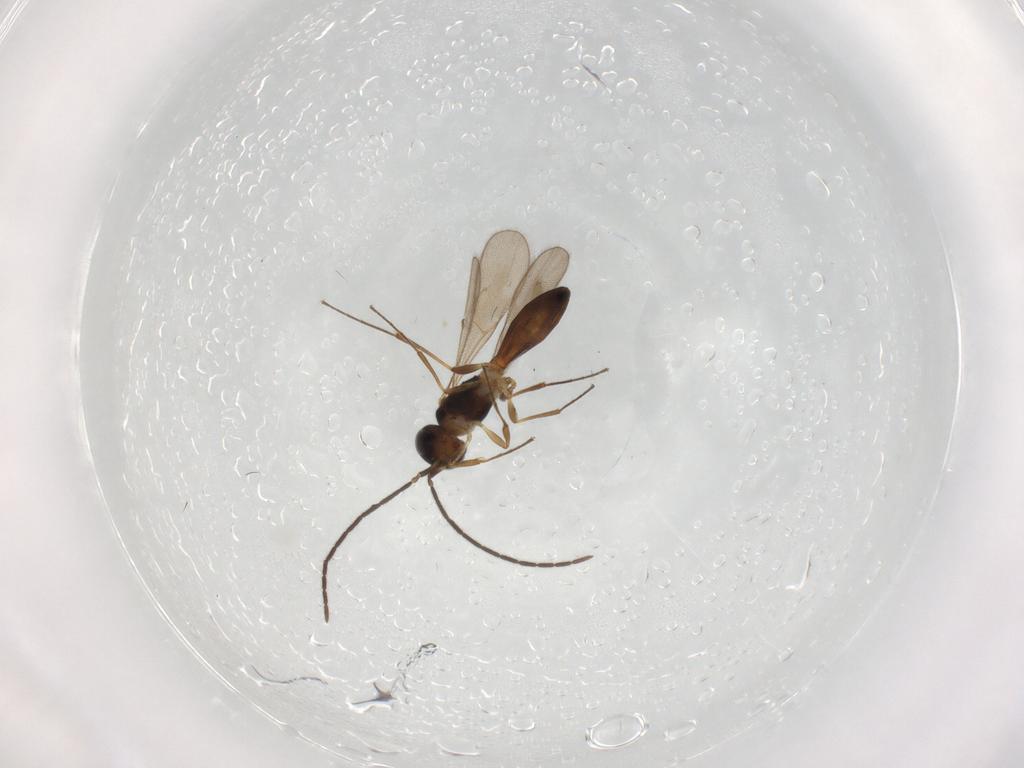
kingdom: Animalia
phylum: Arthropoda
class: Insecta
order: Hymenoptera
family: Scelionidae
